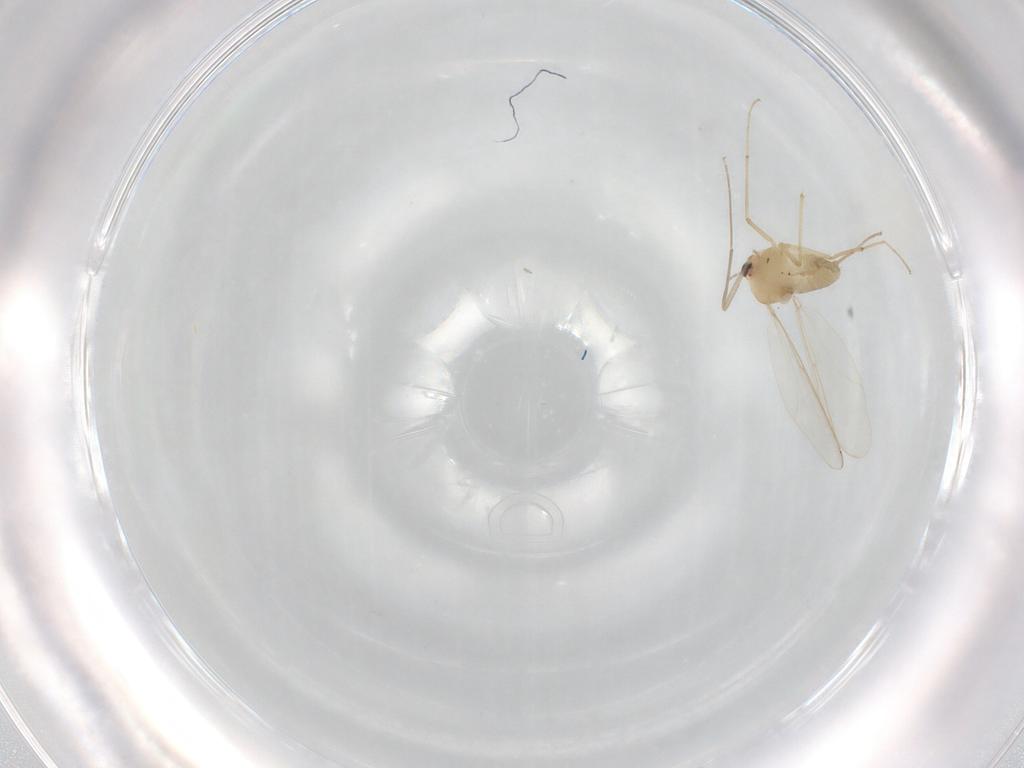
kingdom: Animalia
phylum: Arthropoda
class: Insecta
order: Diptera
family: Chironomidae
